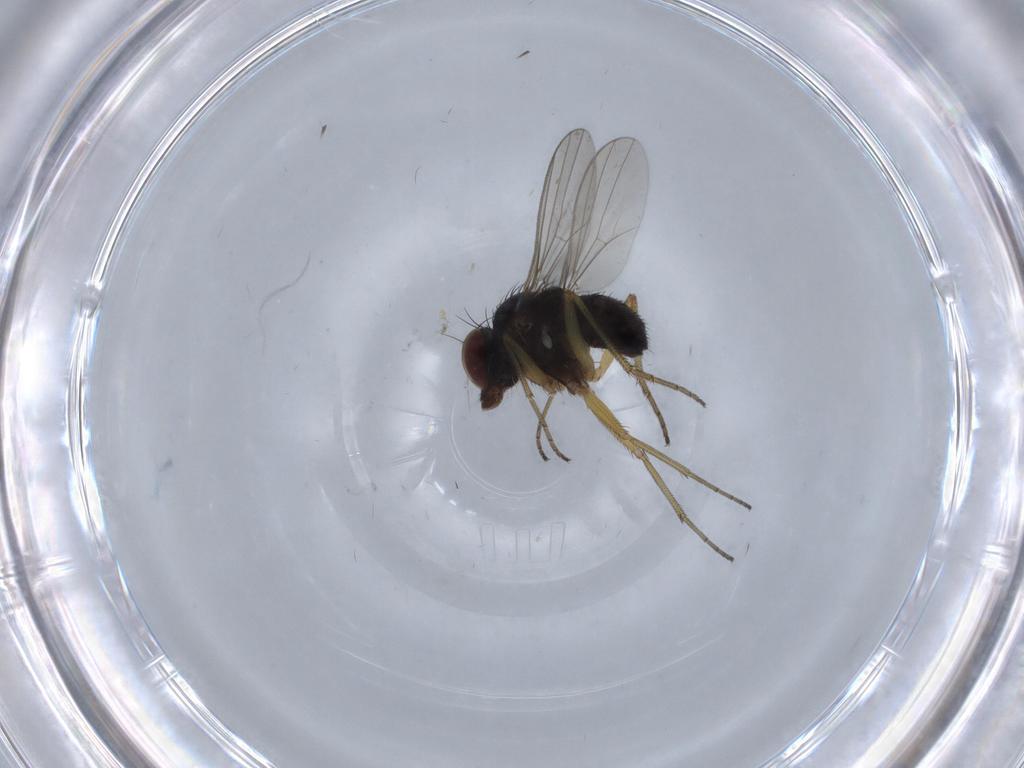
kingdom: Animalia
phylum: Arthropoda
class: Insecta
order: Diptera
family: Dolichopodidae
